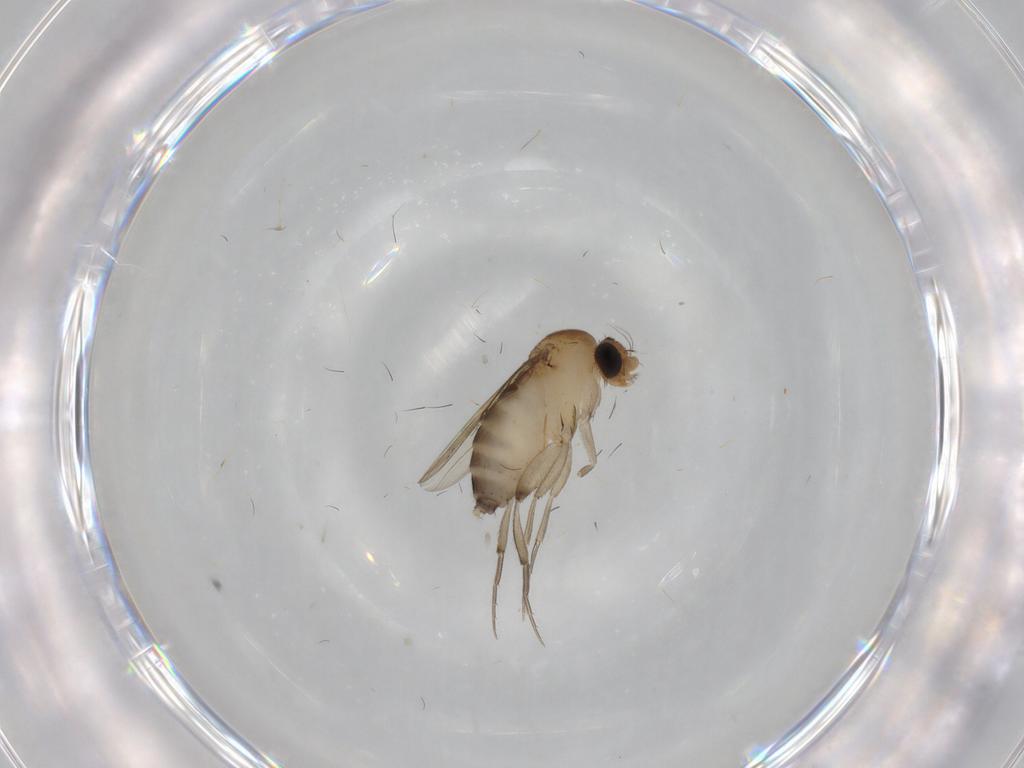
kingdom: Animalia
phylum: Arthropoda
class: Insecta
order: Diptera
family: Phoridae
